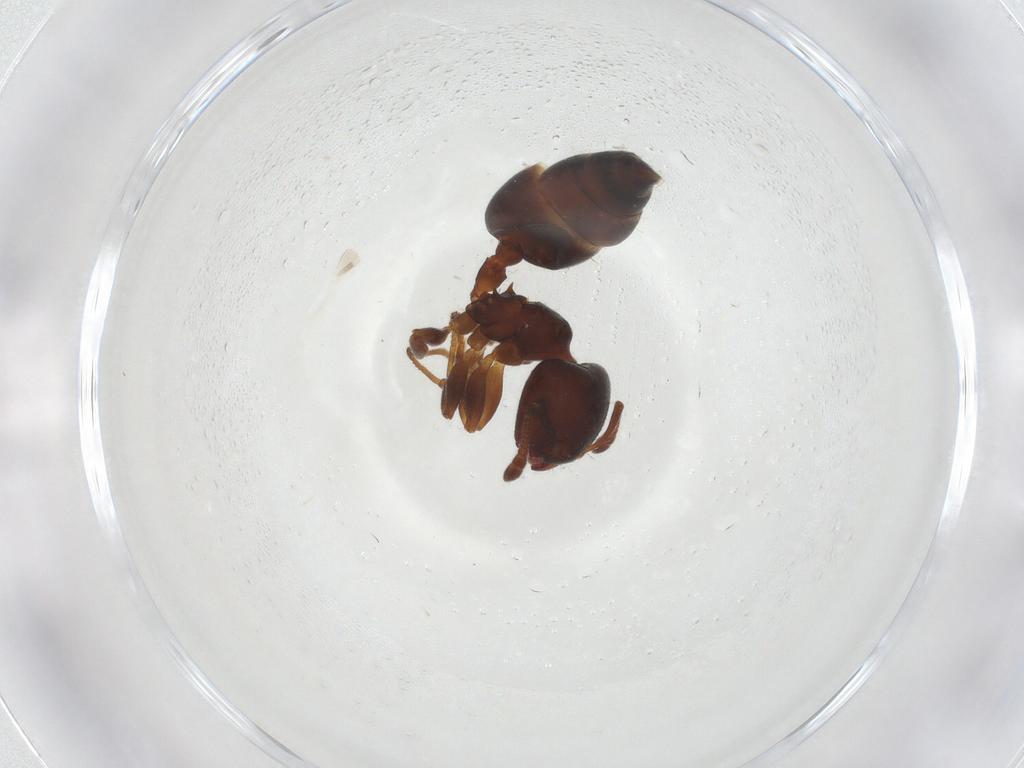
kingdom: Animalia
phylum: Arthropoda
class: Insecta
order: Hymenoptera
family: Formicidae
